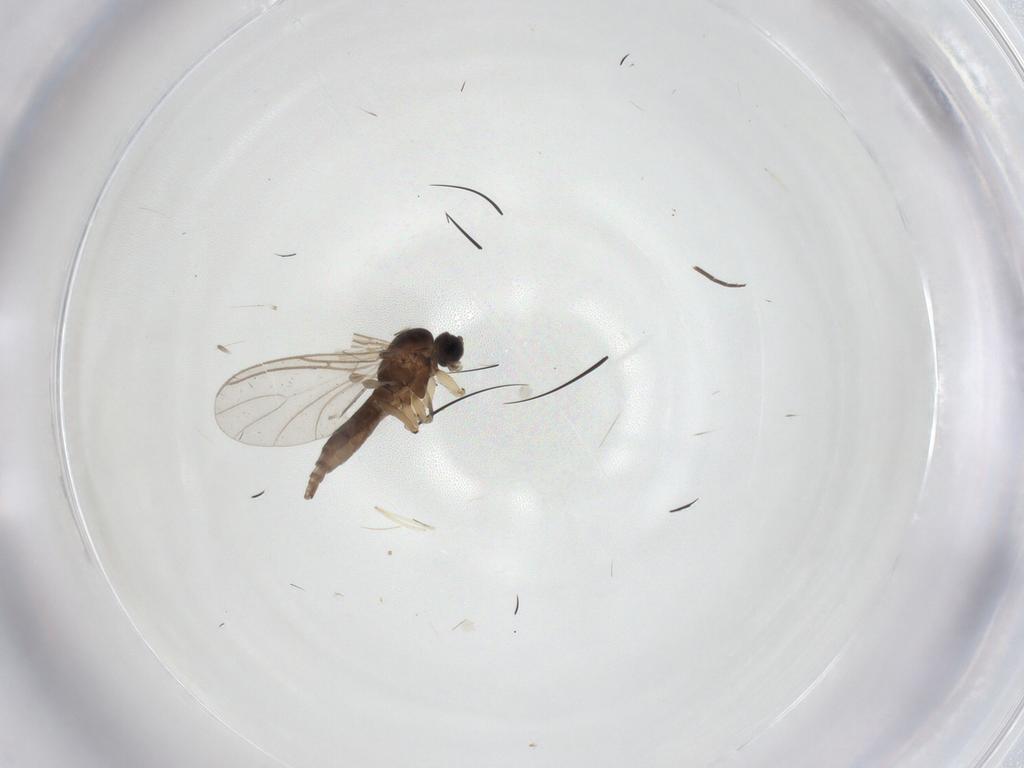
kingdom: Animalia
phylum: Arthropoda
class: Insecta
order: Diptera
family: Sciaridae
